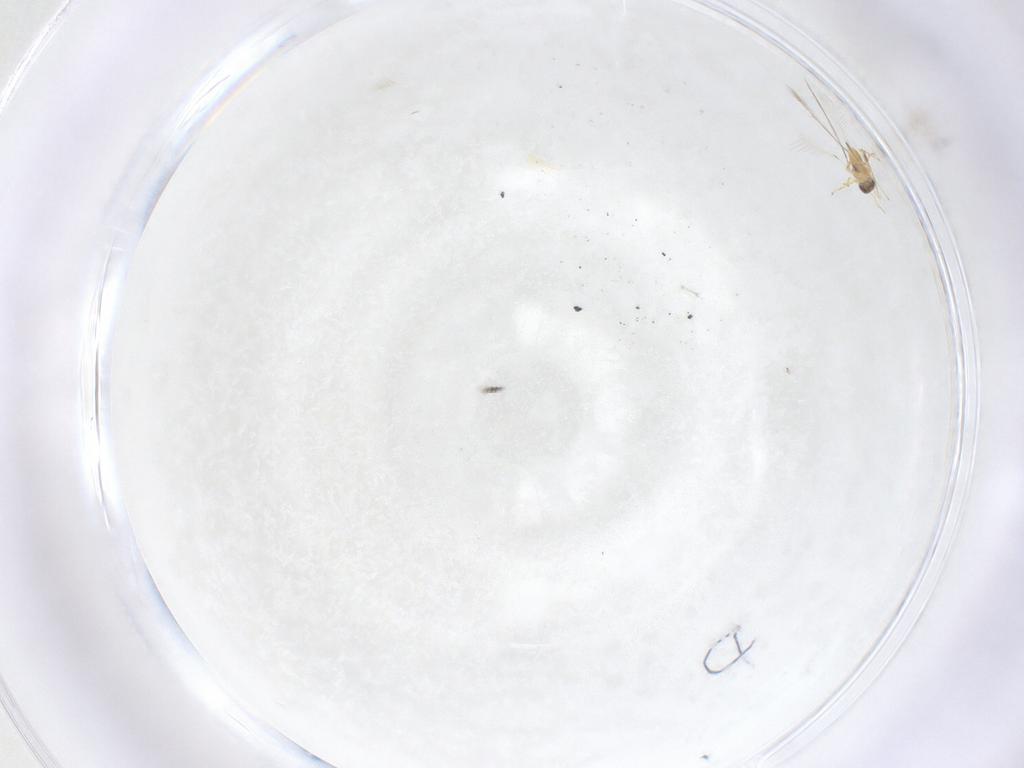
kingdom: Animalia
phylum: Arthropoda
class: Insecta
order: Hymenoptera
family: Mymaridae
